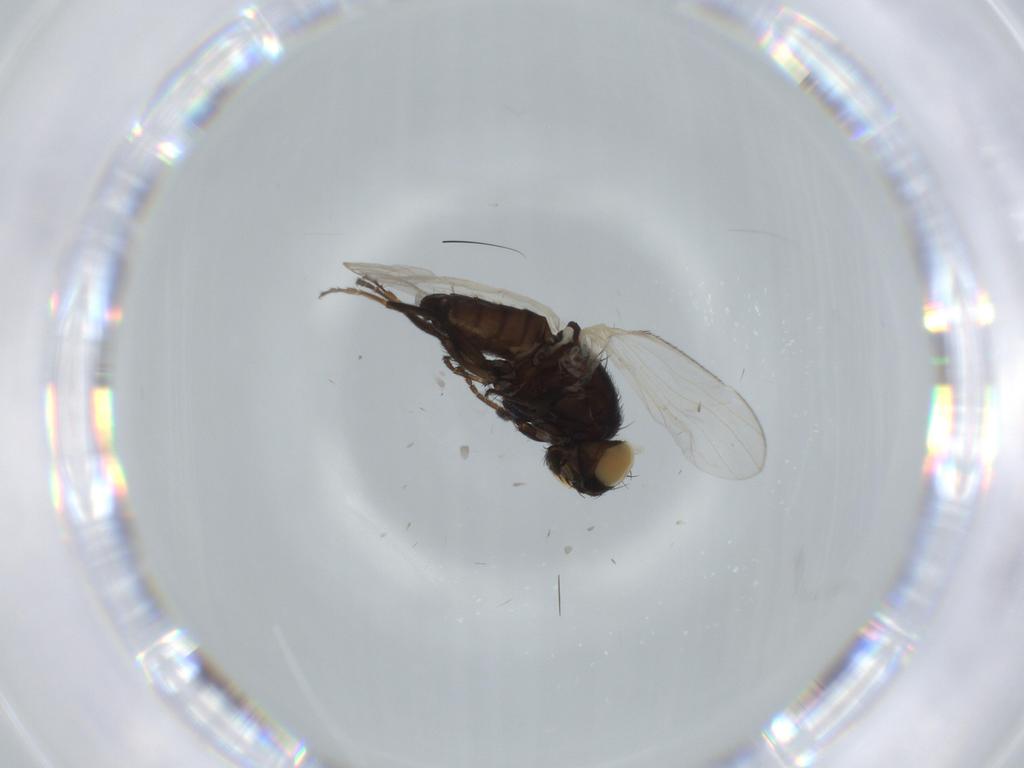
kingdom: Animalia
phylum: Arthropoda
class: Insecta
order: Diptera
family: Carnidae
